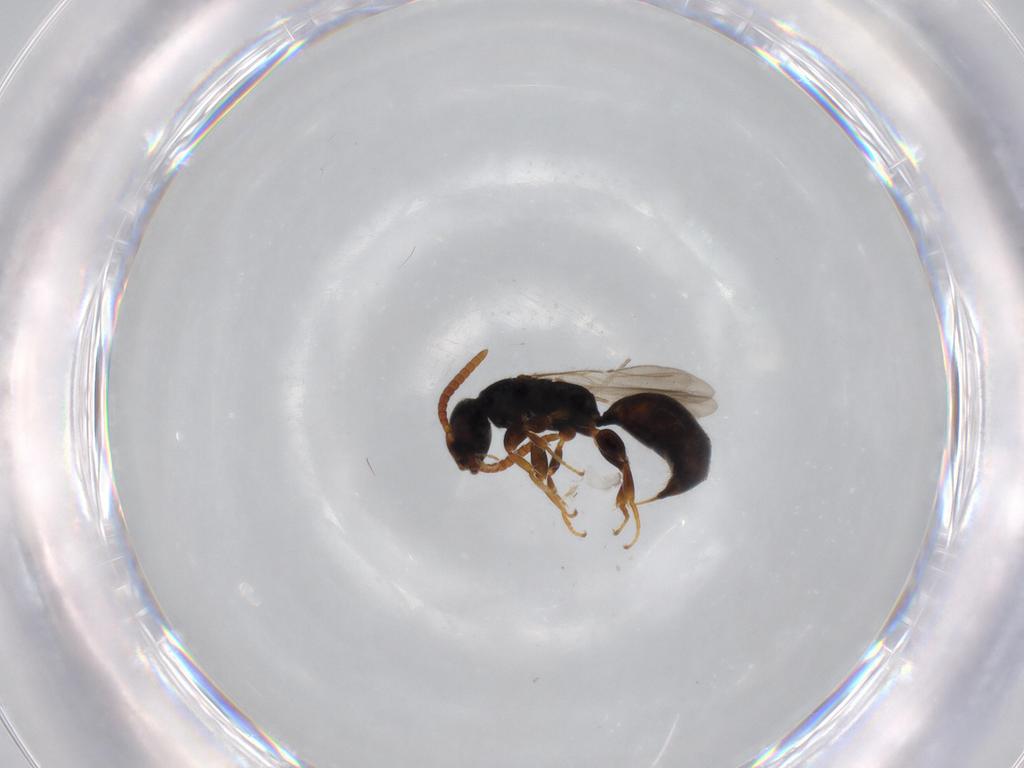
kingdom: Animalia
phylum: Arthropoda
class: Insecta
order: Hymenoptera
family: Bethylidae
